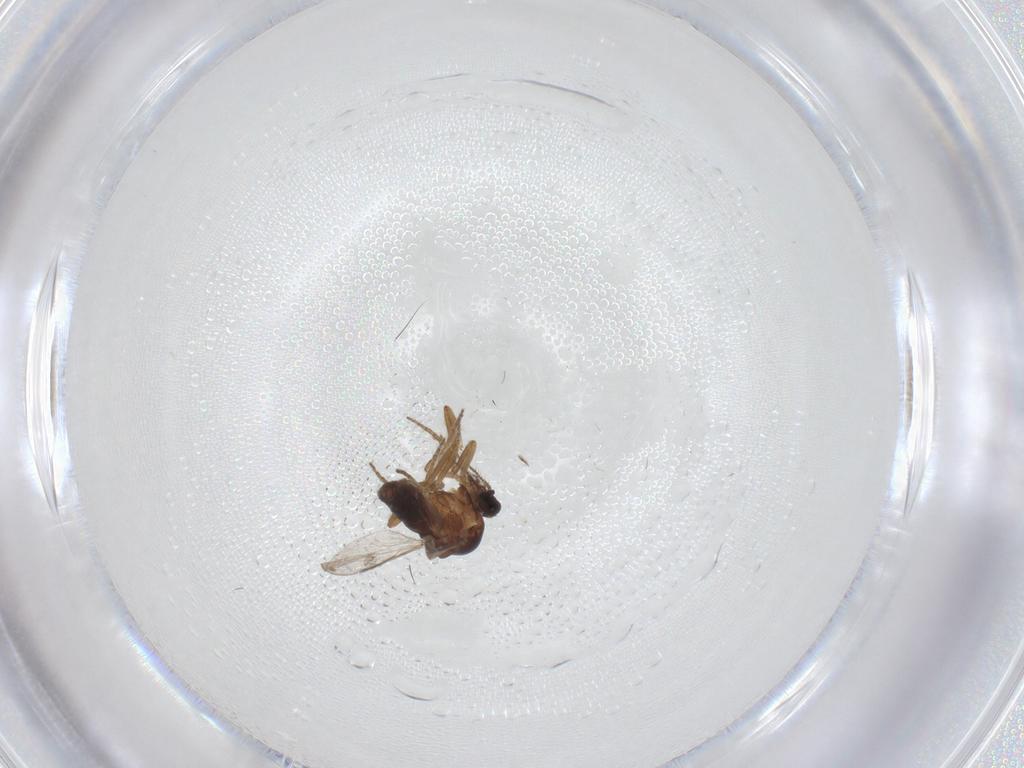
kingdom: Animalia
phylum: Arthropoda
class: Insecta
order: Diptera
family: Ceratopogonidae
